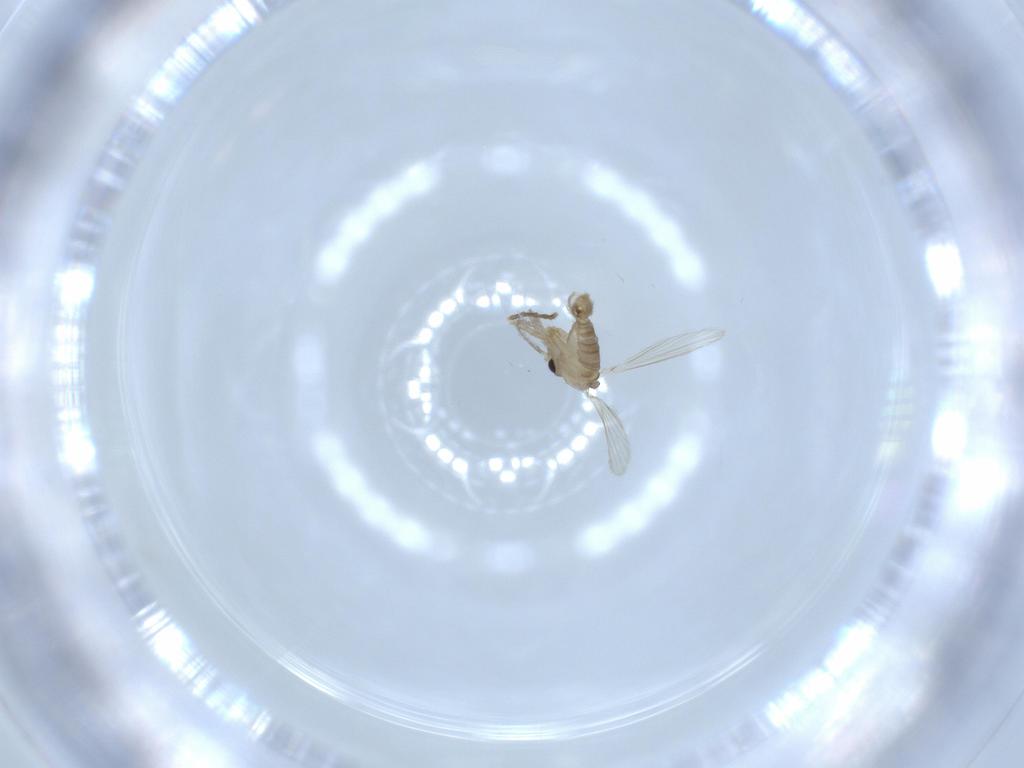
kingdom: Animalia
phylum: Arthropoda
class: Insecta
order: Diptera
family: Psychodidae
